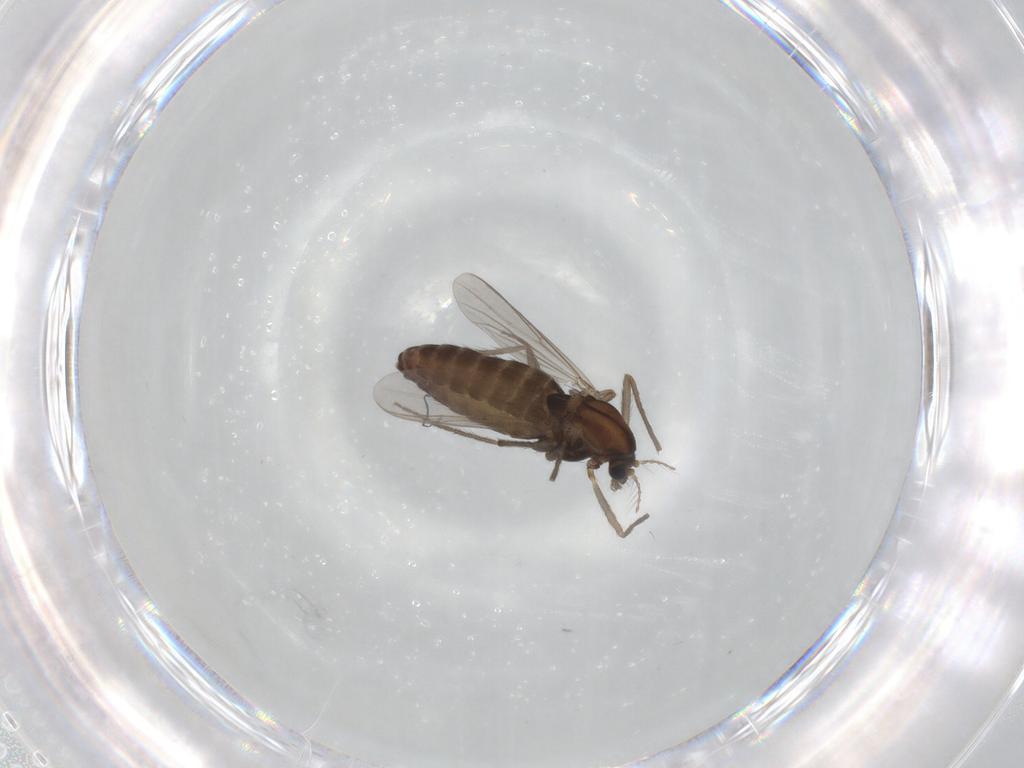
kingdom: Animalia
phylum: Arthropoda
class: Insecta
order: Diptera
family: Chironomidae
